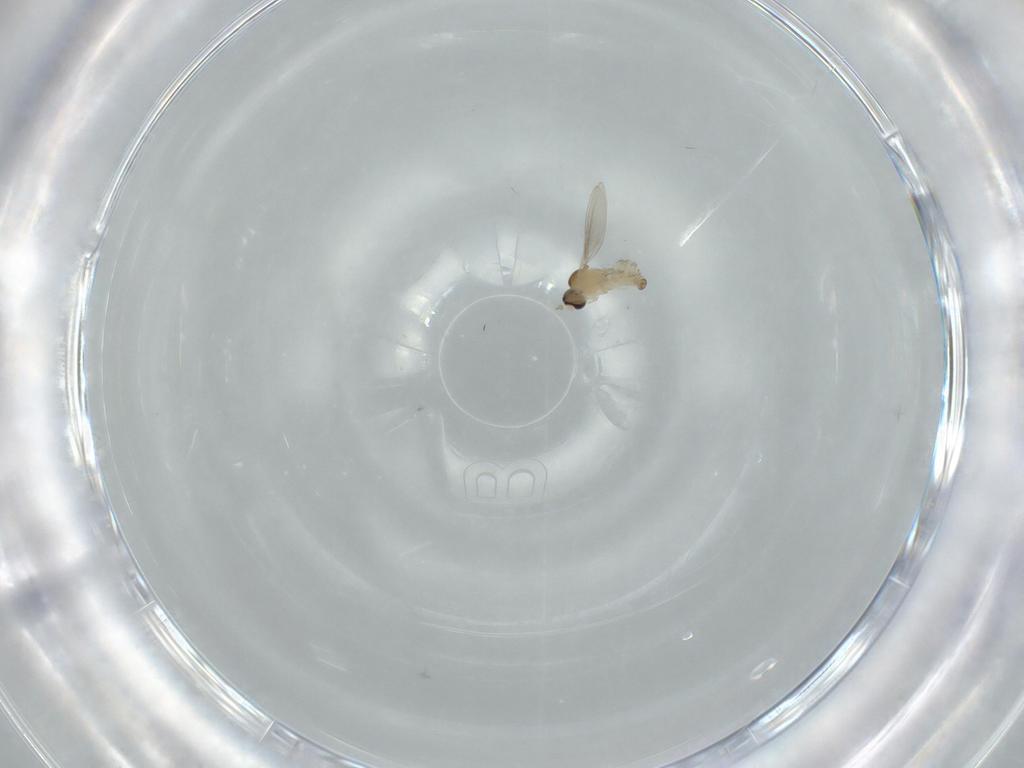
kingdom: Animalia
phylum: Arthropoda
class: Insecta
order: Diptera
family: Cecidomyiidae
